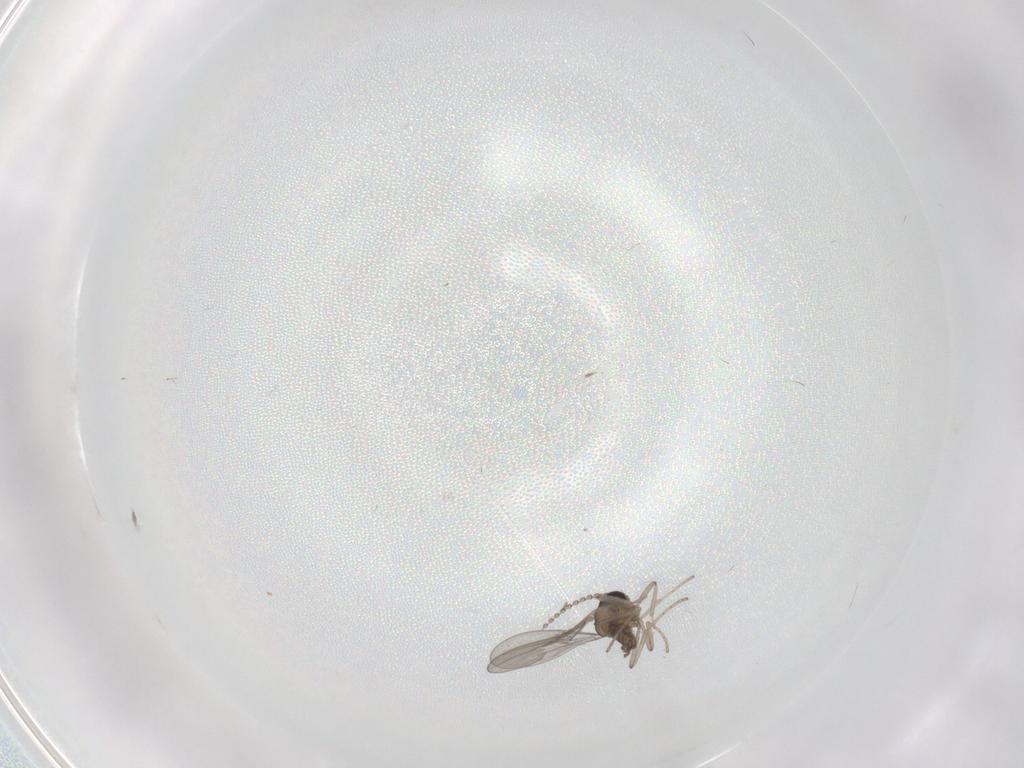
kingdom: Animalia
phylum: Arthropoda
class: Insecta
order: Diptera
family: Cecidomyiidae
